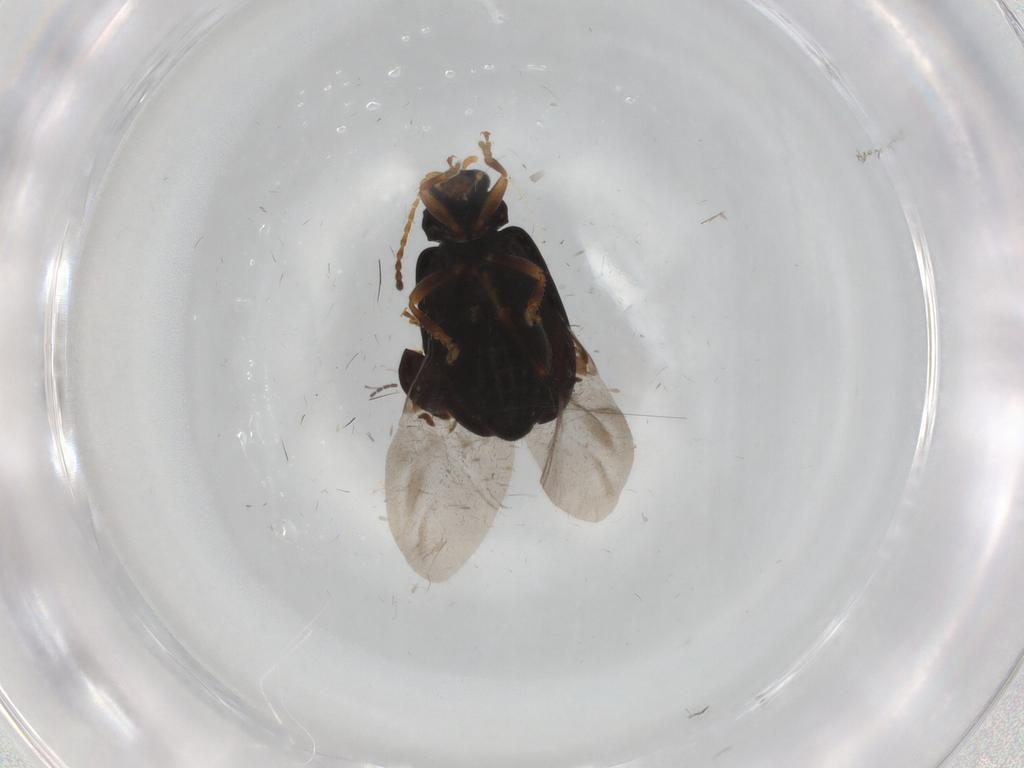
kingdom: Animalia
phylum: Arthropoda
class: Insecta
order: Coleoptera
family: Chrysomelidae
